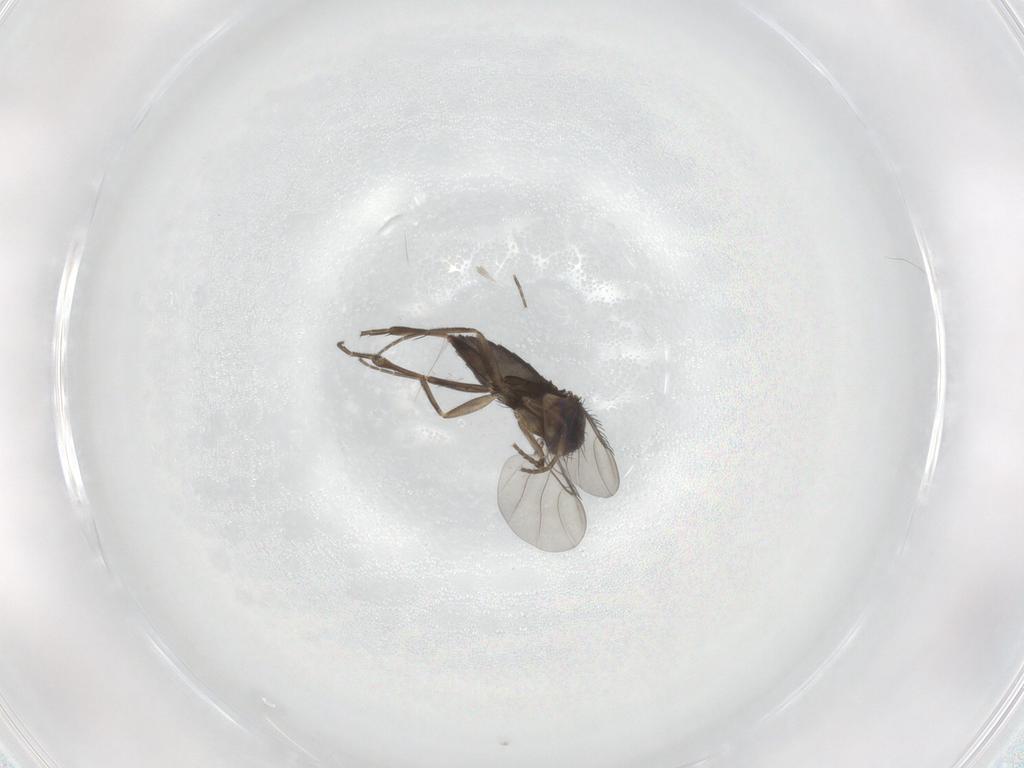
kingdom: Animalia
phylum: Arthropoda
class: Insecta
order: Diptera
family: Phoridae
